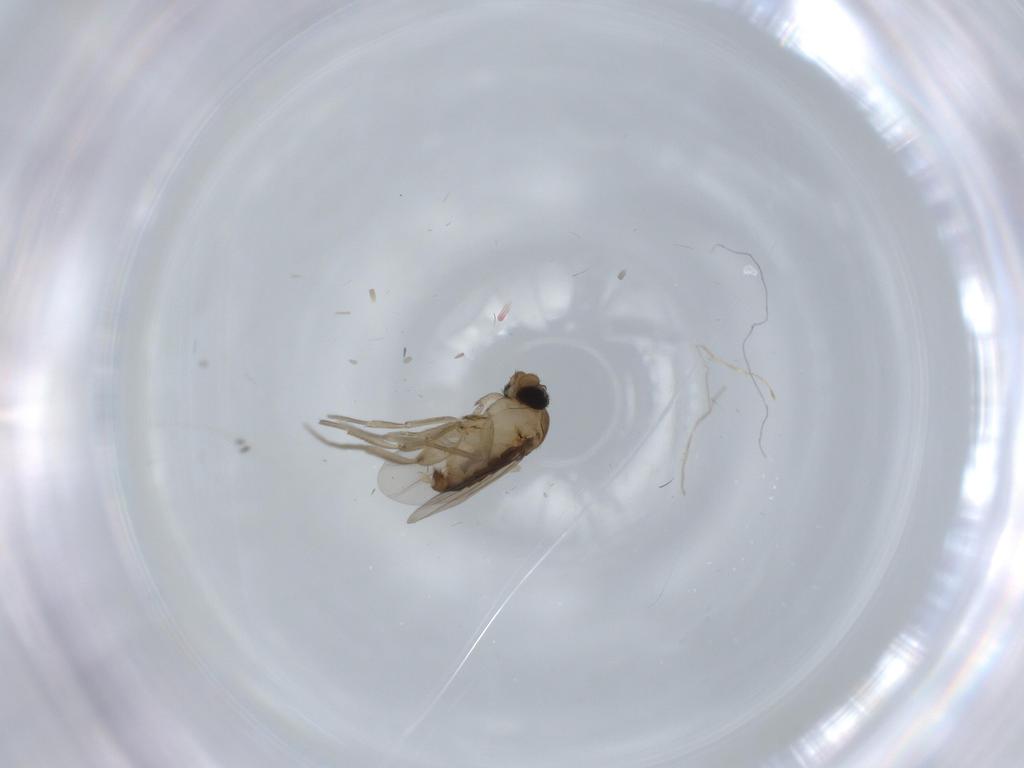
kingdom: Animalia
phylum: Arthropoda
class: Insecta
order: Diptera
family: Phoridae
